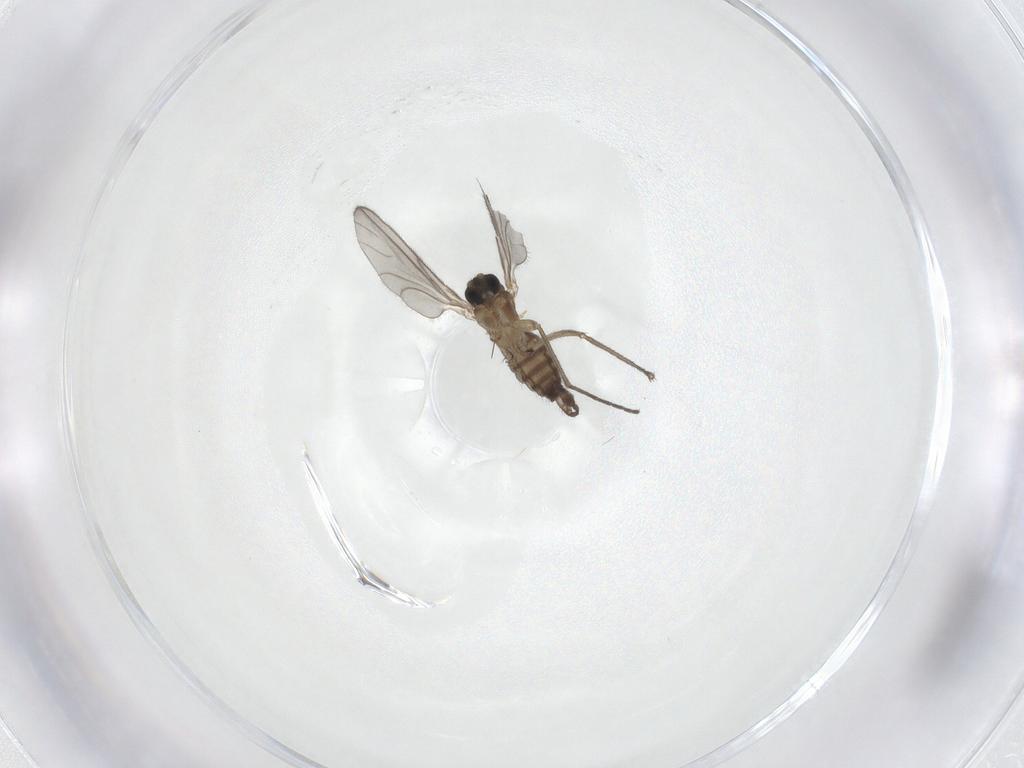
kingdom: Animalia
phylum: Arthropoda
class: Insecta
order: Diptera
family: Sciaridae
